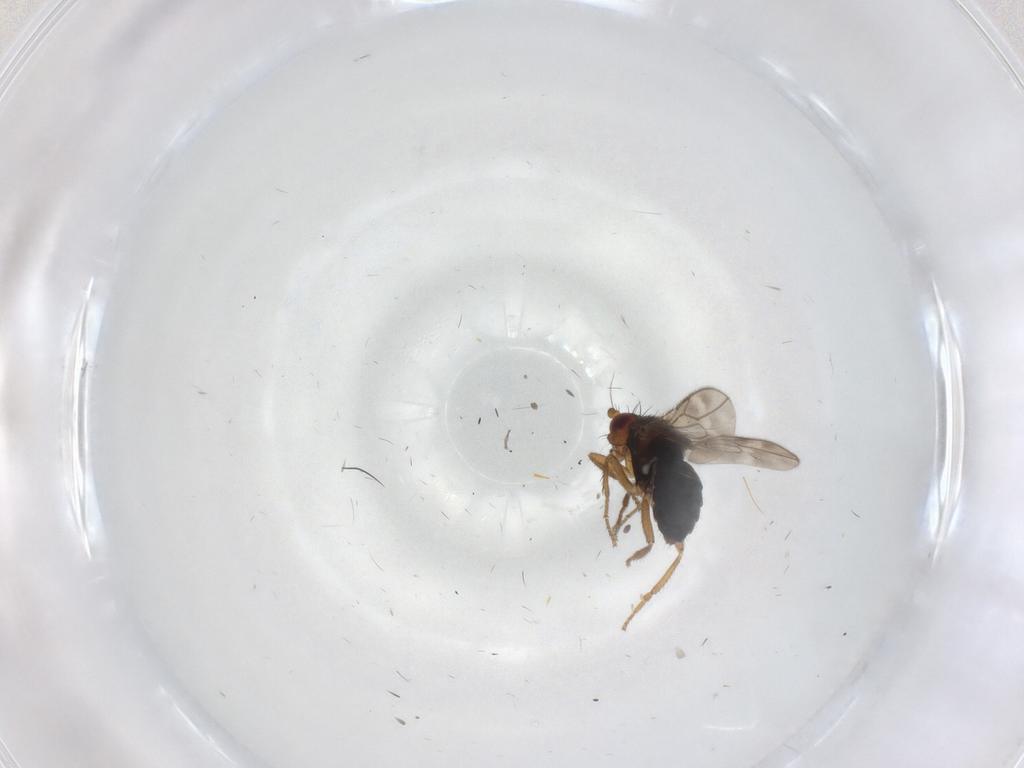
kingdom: Animalia
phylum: Arthropoda
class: Insecta
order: Diptera
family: Sphaeroceridae
